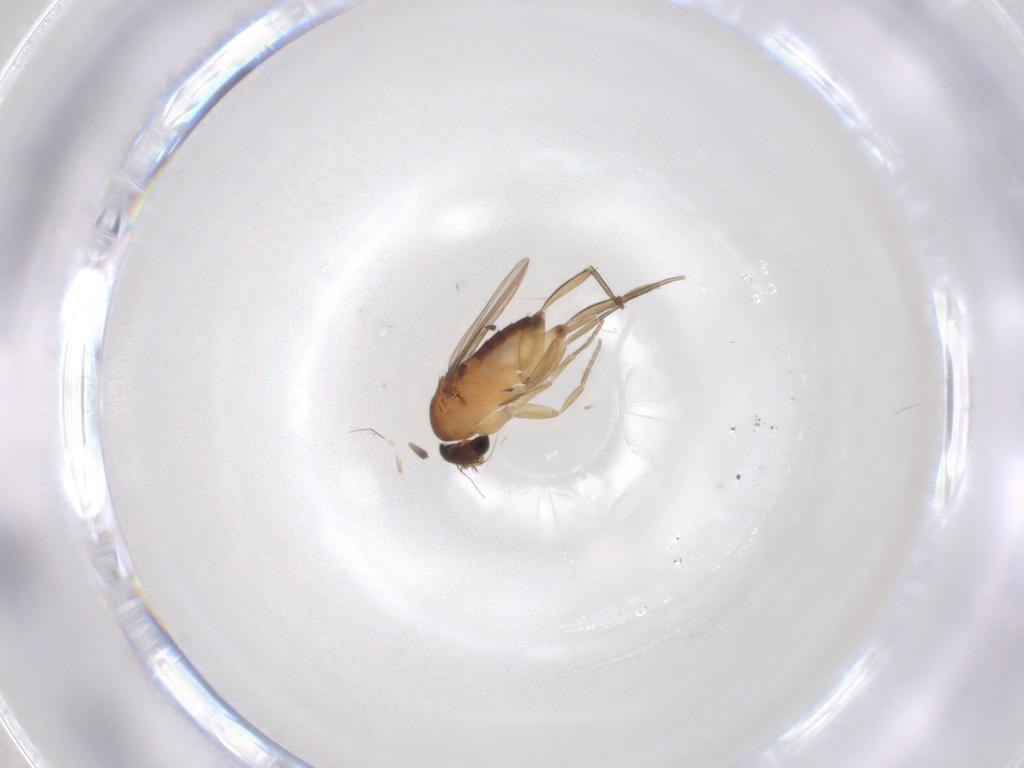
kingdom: Animalia
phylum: Arthropoda
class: Insecta
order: Diptera
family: Phoridae
